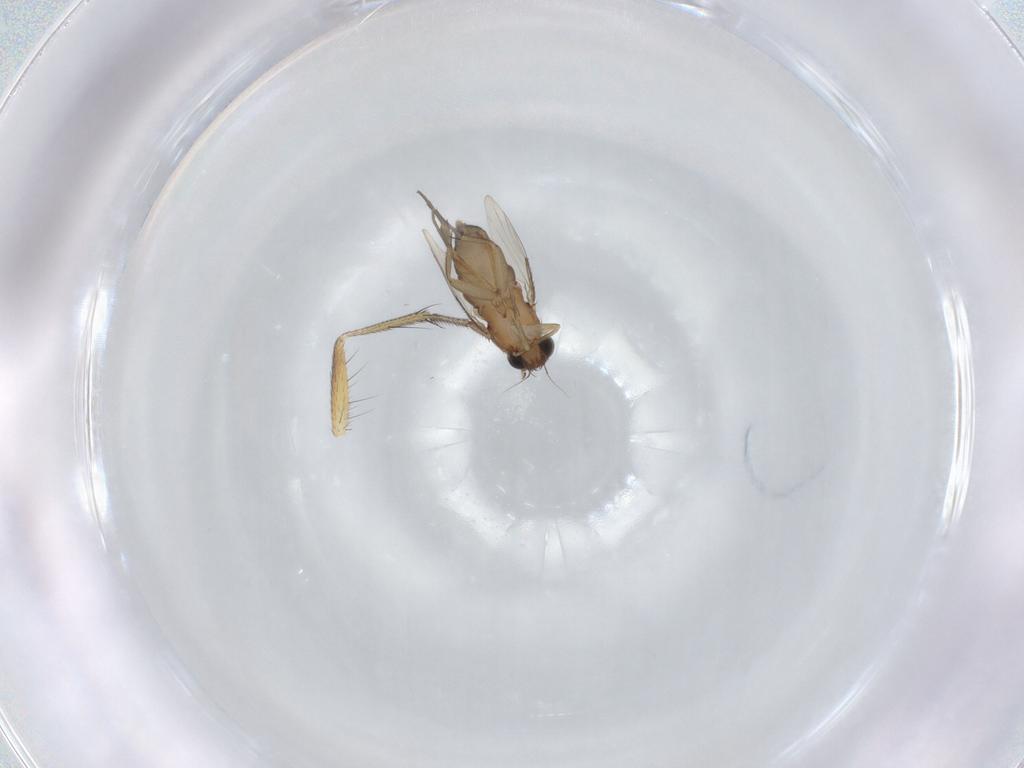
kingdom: Animalia
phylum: Arthropoda
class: Insecta
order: Diptera
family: Phoridae
